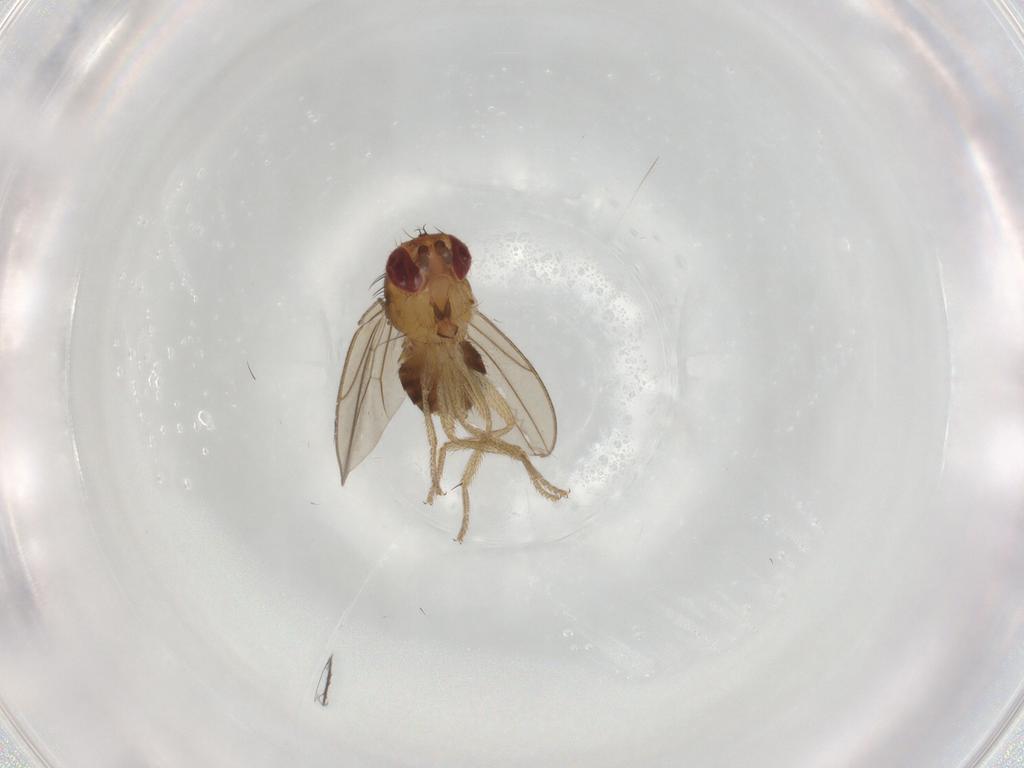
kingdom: Animalia
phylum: Arthropoda
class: Insecta
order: Diptera
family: Drosophilidae
